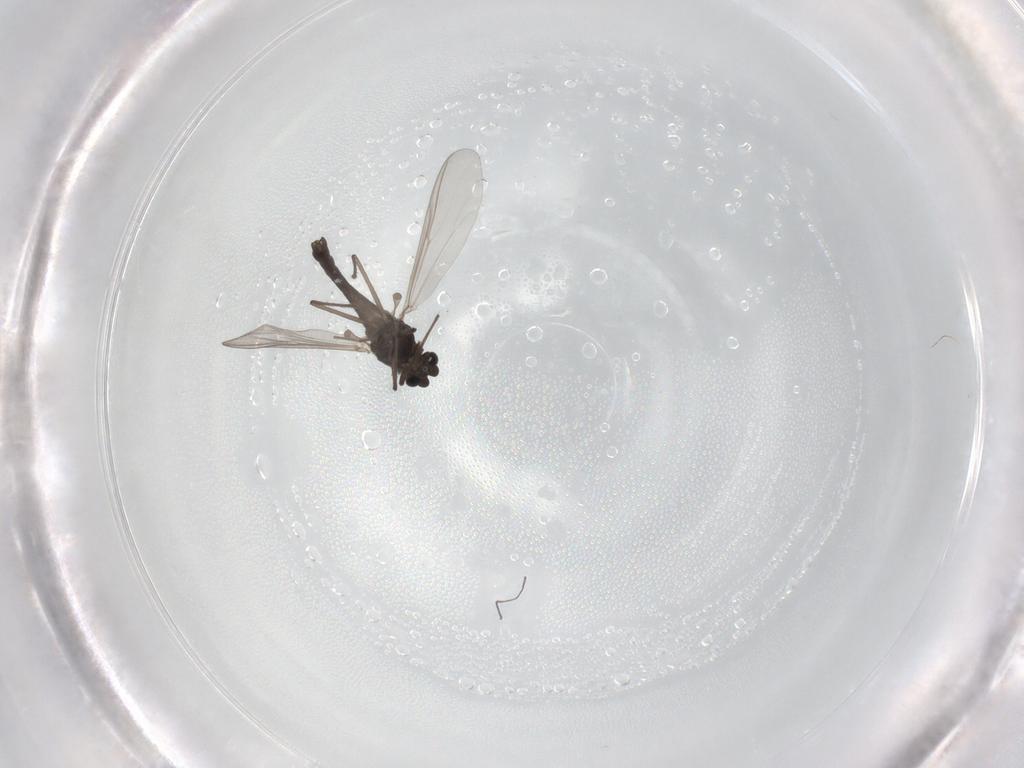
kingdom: Animalia
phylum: Arthropoda
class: Insecta
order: Diptera
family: Chironomidae
